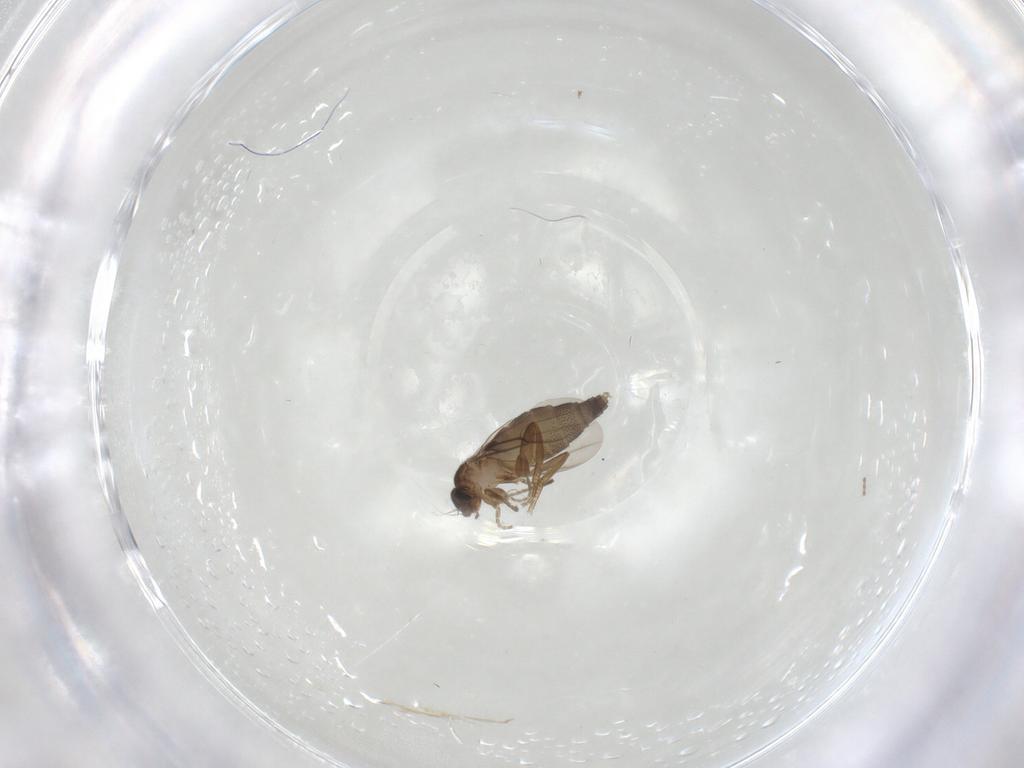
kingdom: Animalia
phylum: Arthropoda
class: Insecta
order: Diptera
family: Phoridae
